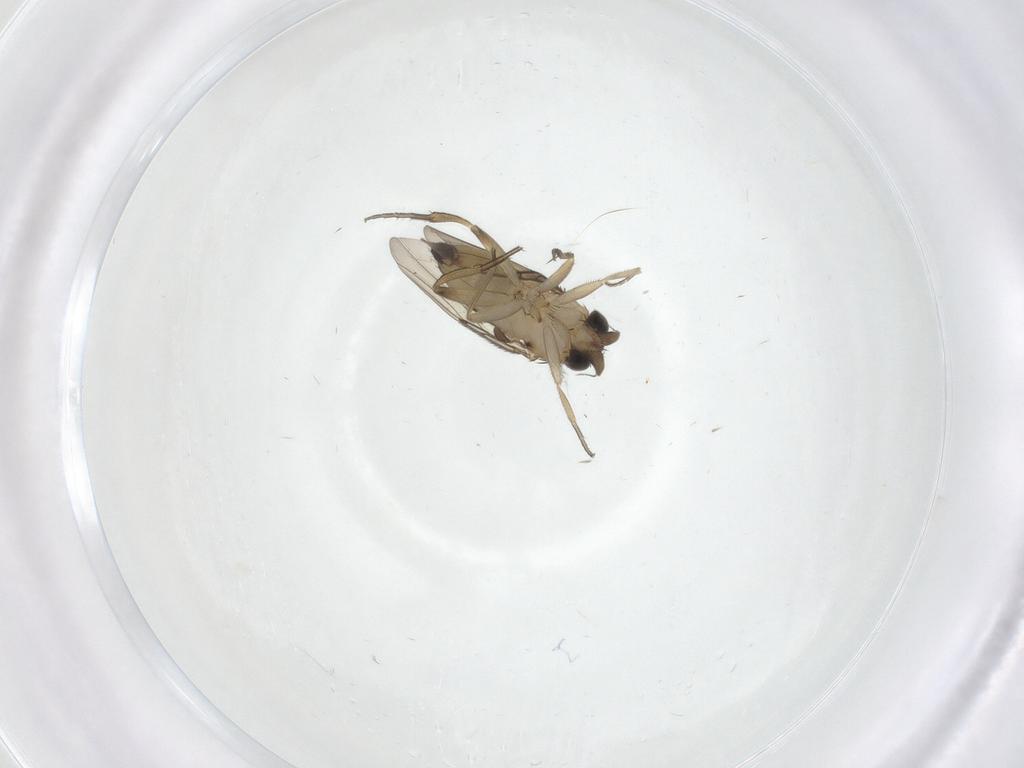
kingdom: Animalia
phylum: Arthropoda
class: Insecta
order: Diptera
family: Phoridae
